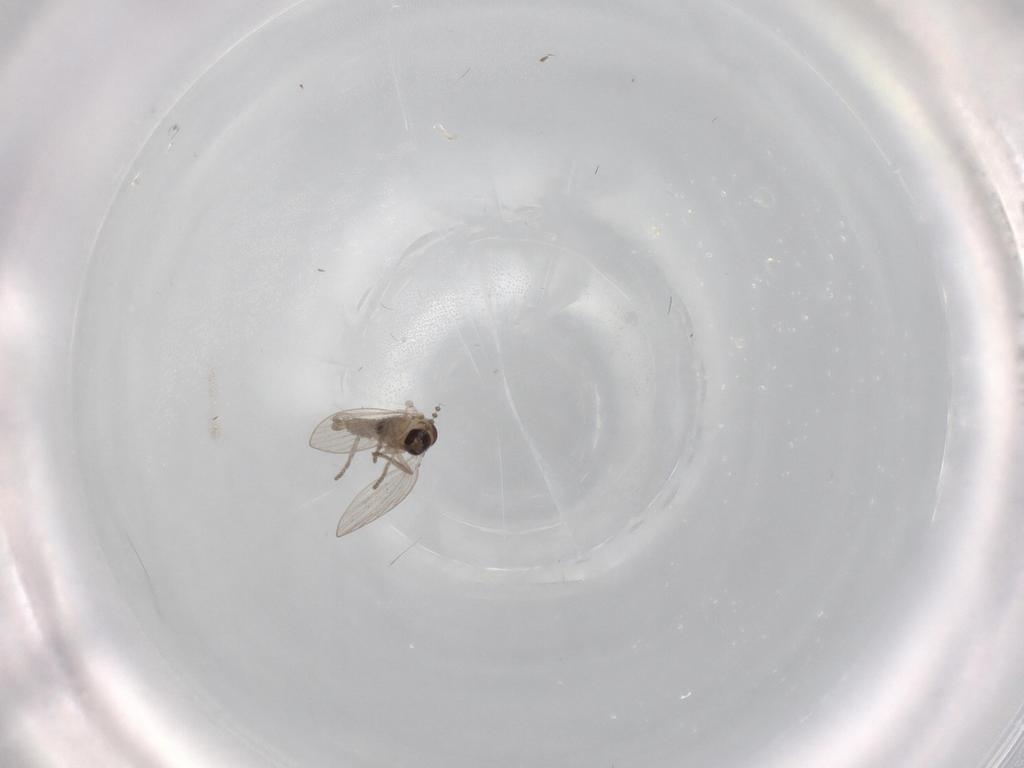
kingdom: Animalia
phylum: Arthropoda
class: Insecta
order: Diptera
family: Psychodidae
